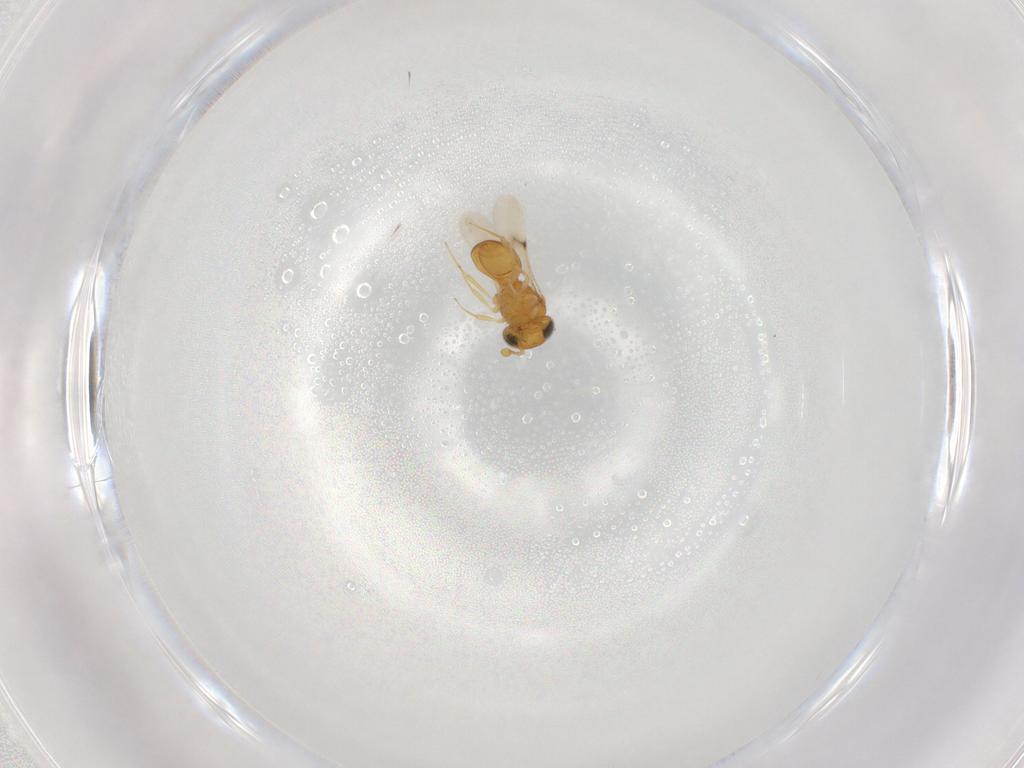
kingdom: Animalia
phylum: Arthropoda
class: Insecta
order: Hymenoptera
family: Scelionidae
